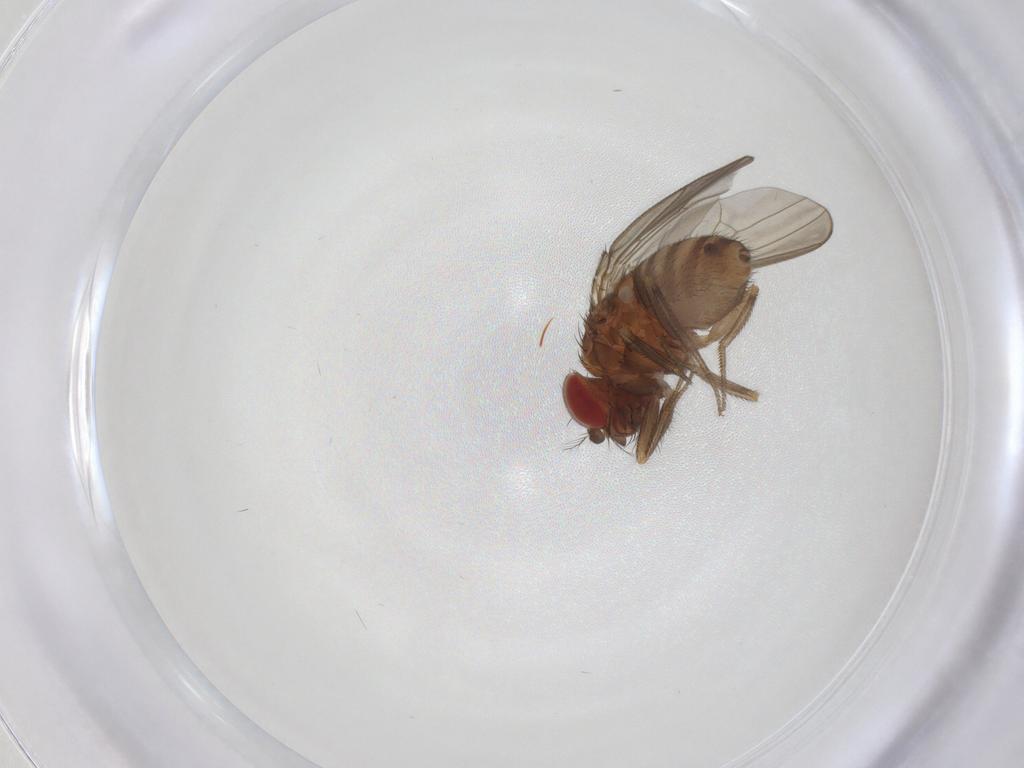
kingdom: Animalia
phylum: Arthropoda
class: Insecta
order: Diptera
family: Drosophilidae
